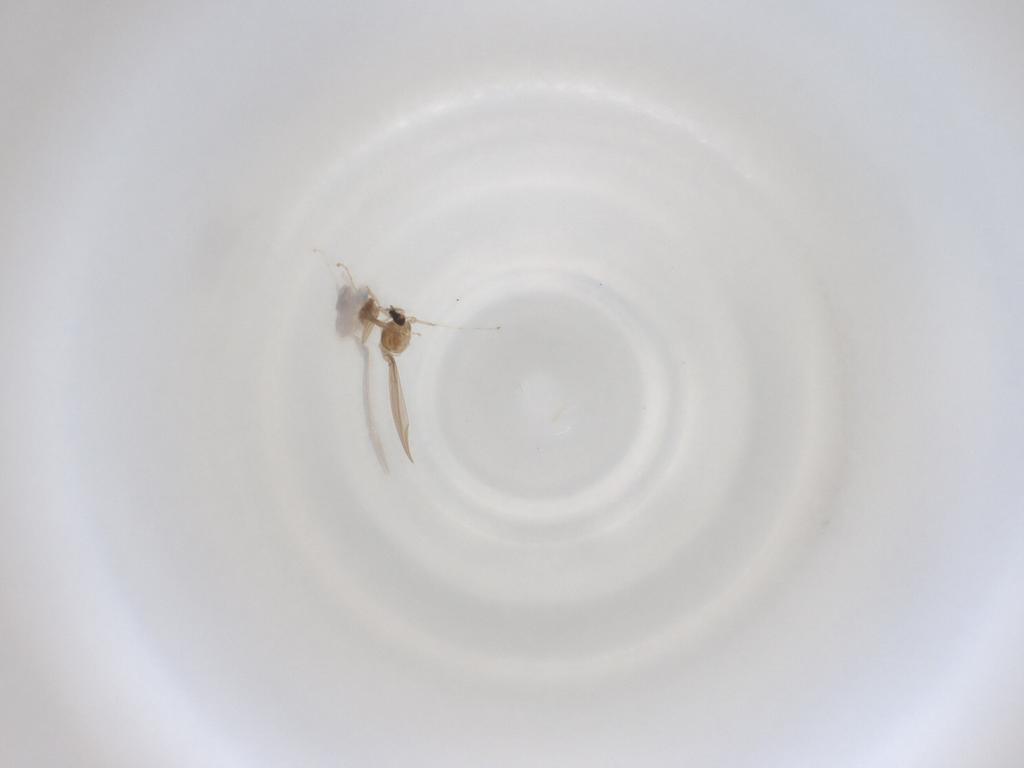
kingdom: Animalia
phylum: Arthropoda
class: Insecta
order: Diptera
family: Cecidomyiidae
